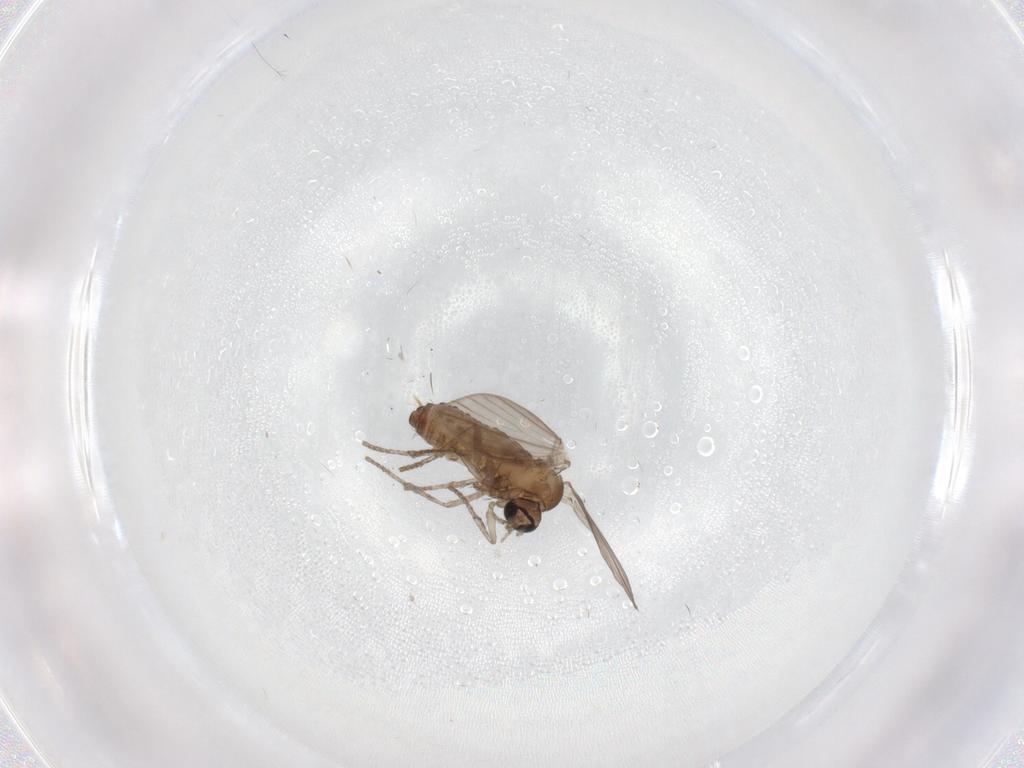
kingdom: Animalia
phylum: Arthropoda
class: Insecta
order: Diptera
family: Psychodidae
